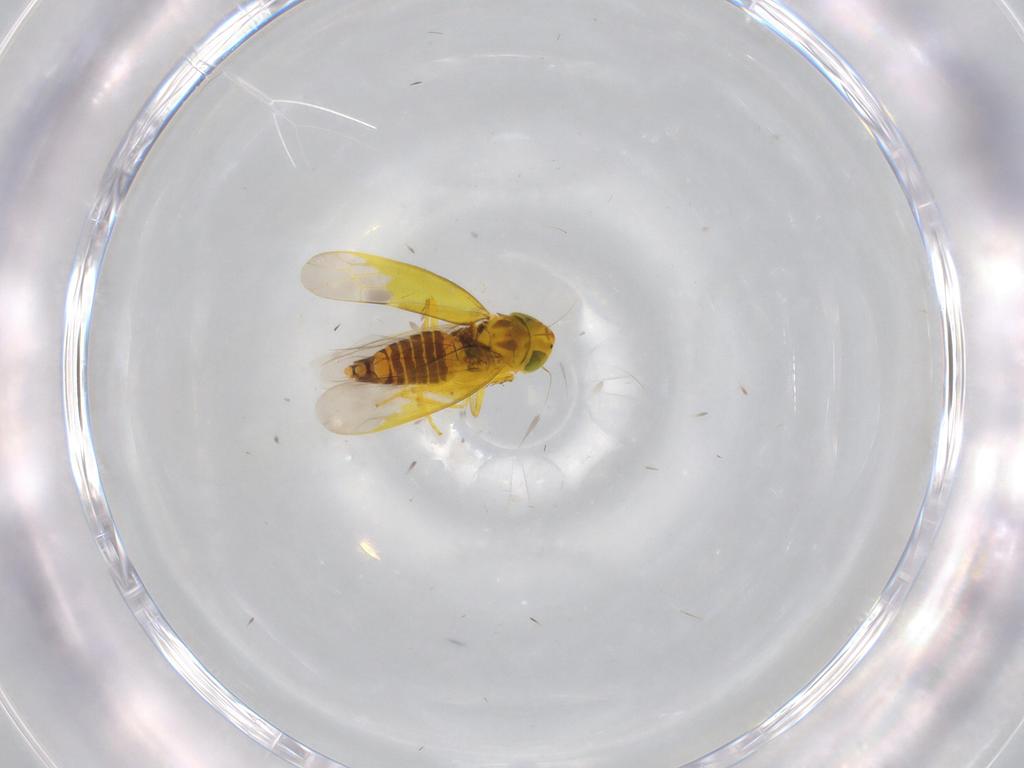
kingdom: Animalia
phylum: Arthropoda
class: Insecta
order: Hemiptera
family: Cicadellidae
